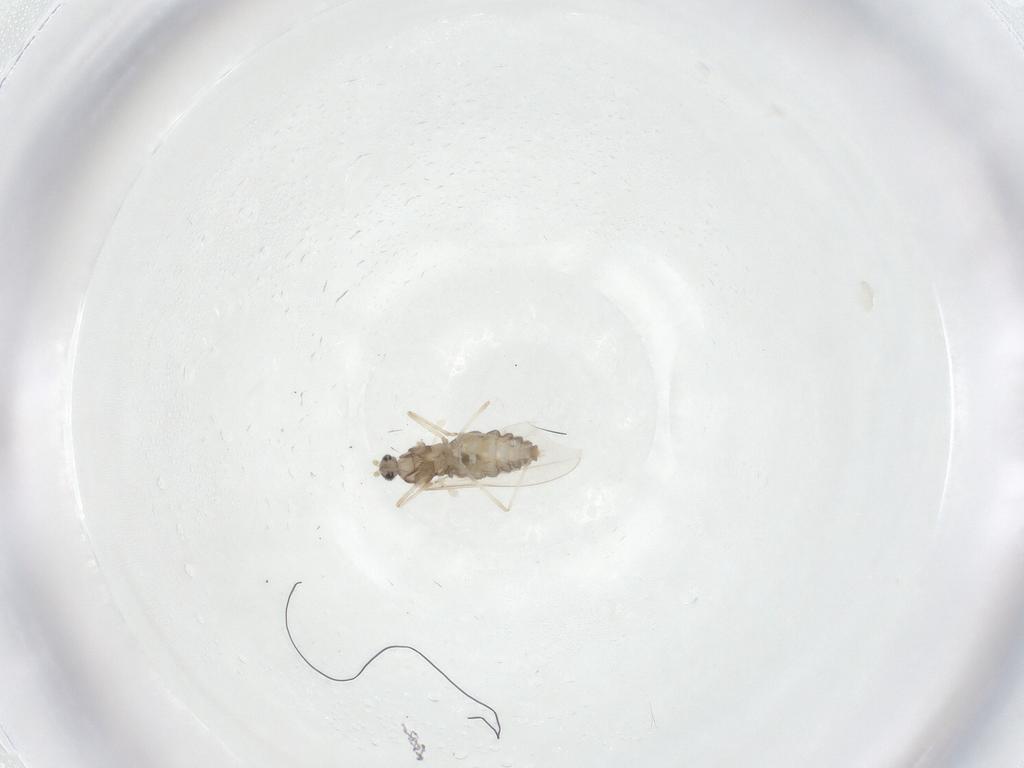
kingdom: Animalia
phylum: Arthropoda
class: Insecta
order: Diptera
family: Cecidomyiidae
